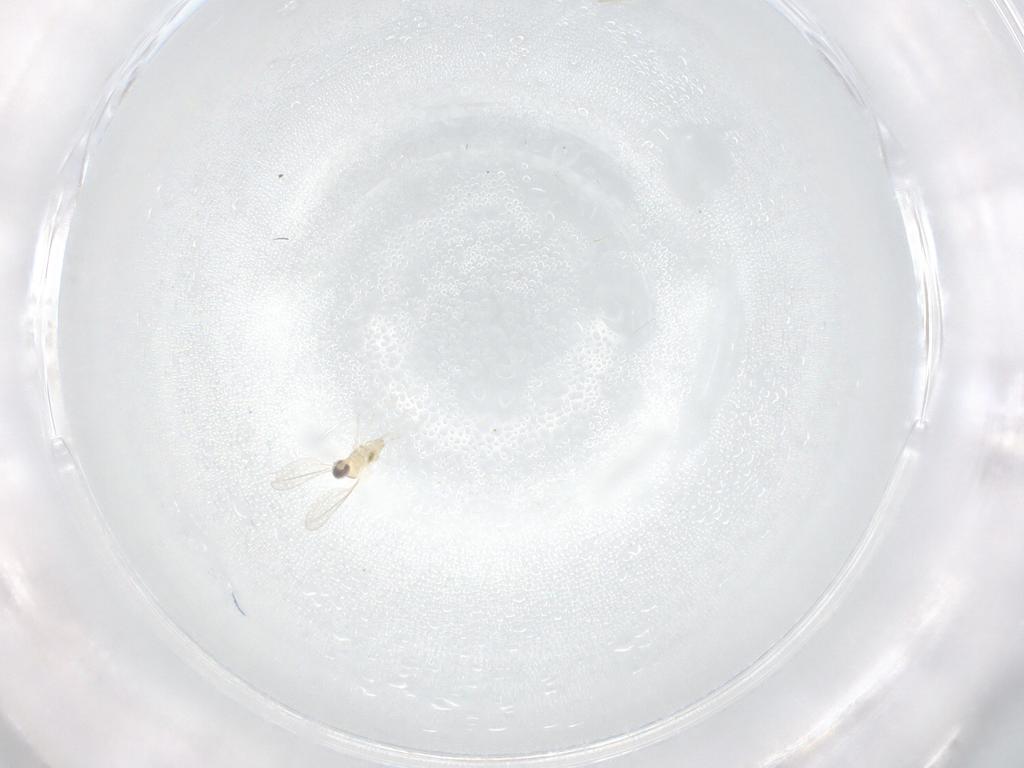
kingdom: Animalia
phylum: Arthropoda
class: Insecta
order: Diptera
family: Cecidomyiidae
